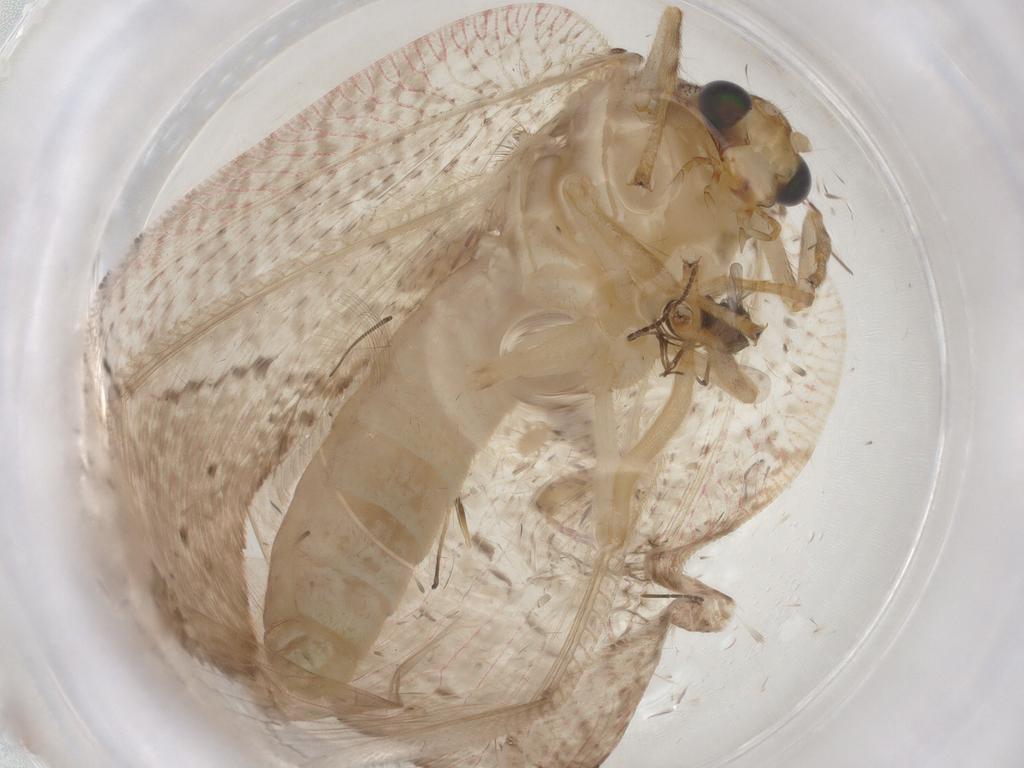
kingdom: Animalia
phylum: Arthropoda
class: Insecta
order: Neuroptera
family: Hemerobiidae
